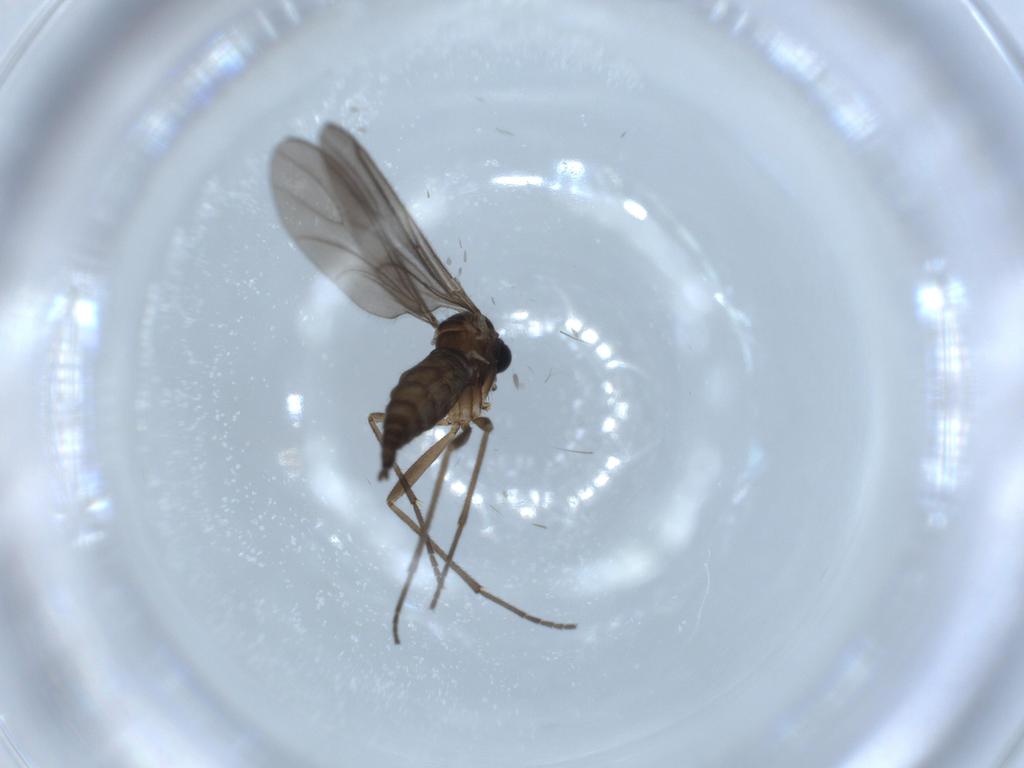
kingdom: Animalia
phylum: Arthropoda
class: Insecta
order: Diptera
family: Sciaridae
